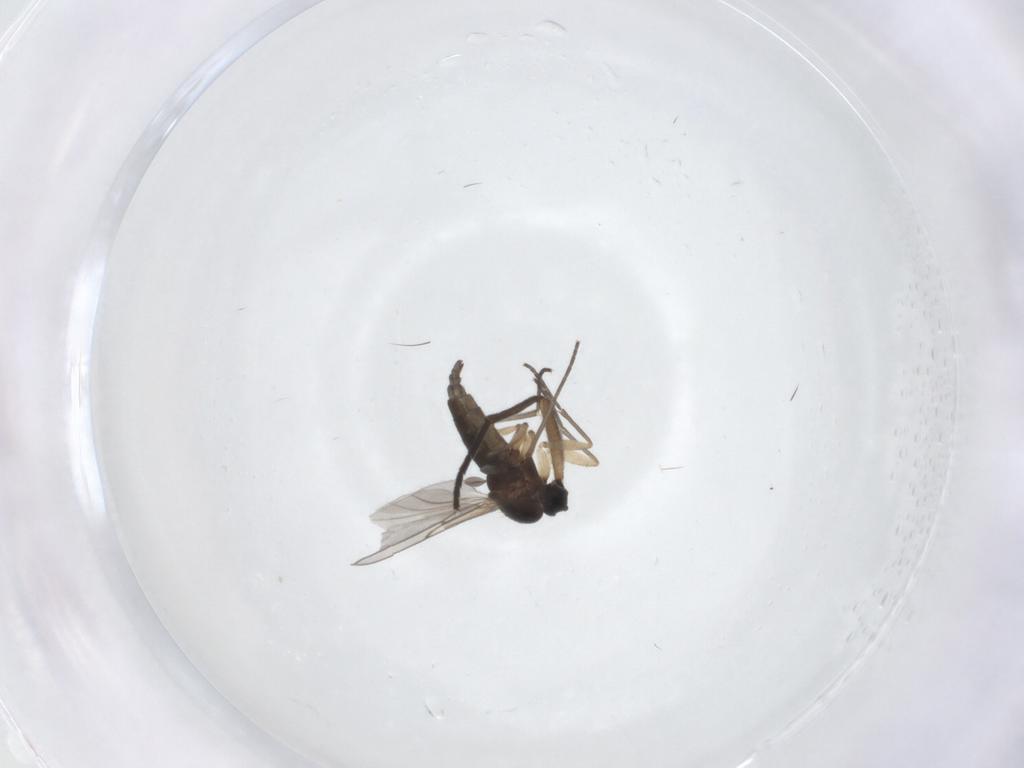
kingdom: Animalia
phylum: Arthropoda
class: Insecta
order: Diptera
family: Sciaridae
